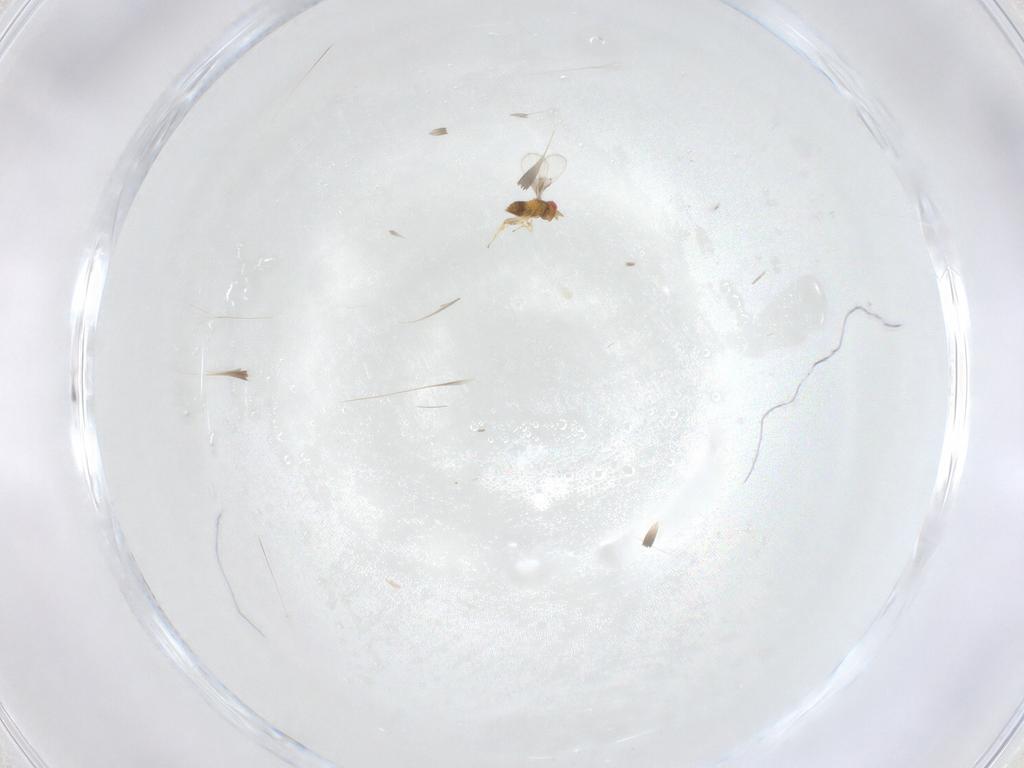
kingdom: Animalia
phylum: Arthropoda
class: Insecta
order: Hymenoptera
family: Trichogrammatidae
